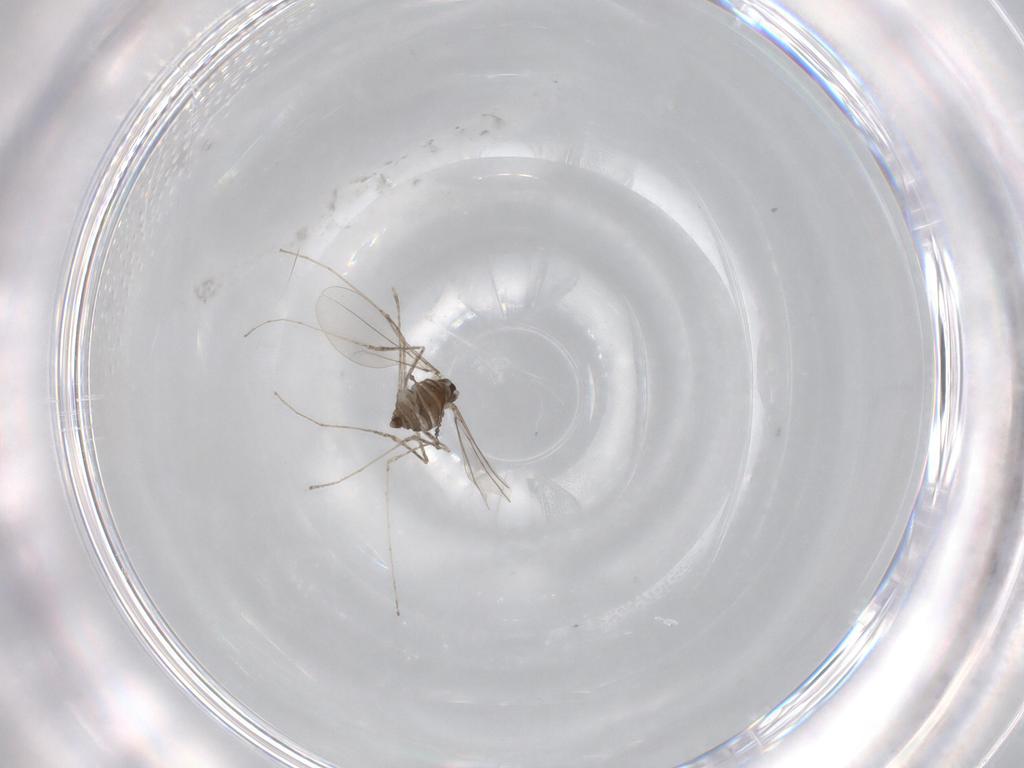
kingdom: Animalia
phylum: Arthropoda
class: Insecta
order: Diptera
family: Cecidomyiidae
